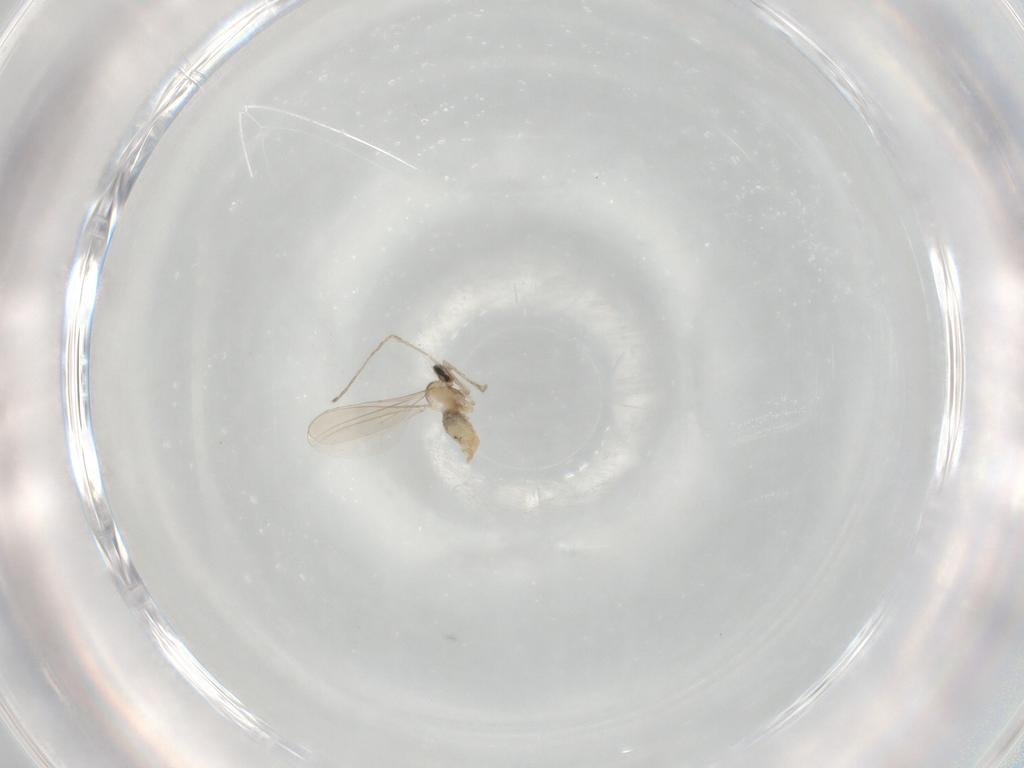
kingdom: Animalia
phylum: Arthropoda
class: Insecta
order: Diptera
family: Cecidomyiidae
